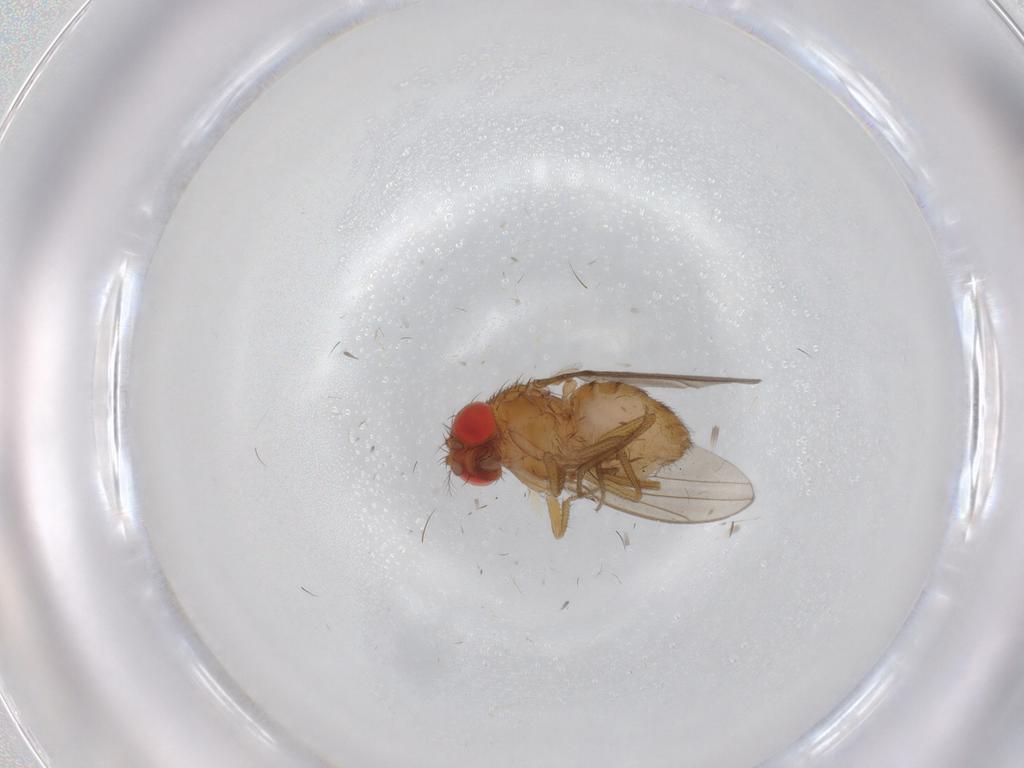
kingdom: Animalia
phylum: Arthropoda
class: Insecta
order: Diptera
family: Drosophilidae
